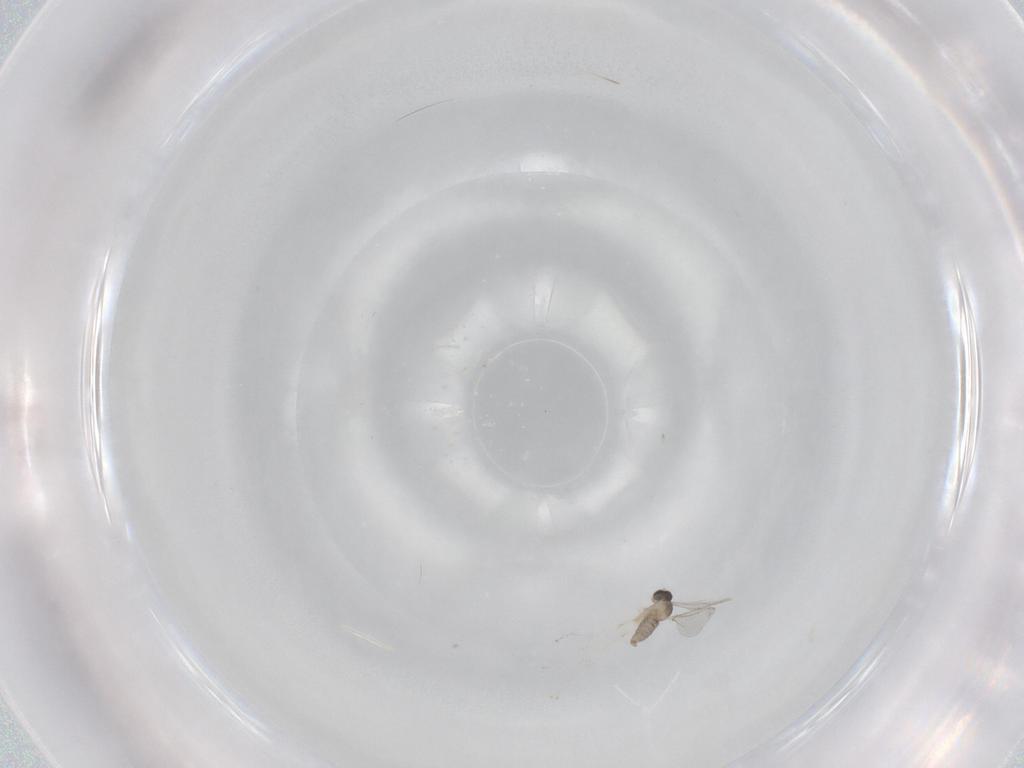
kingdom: Animalia
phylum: Arthropoda
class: Insecta
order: Diptera
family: Cecidomyiidae
